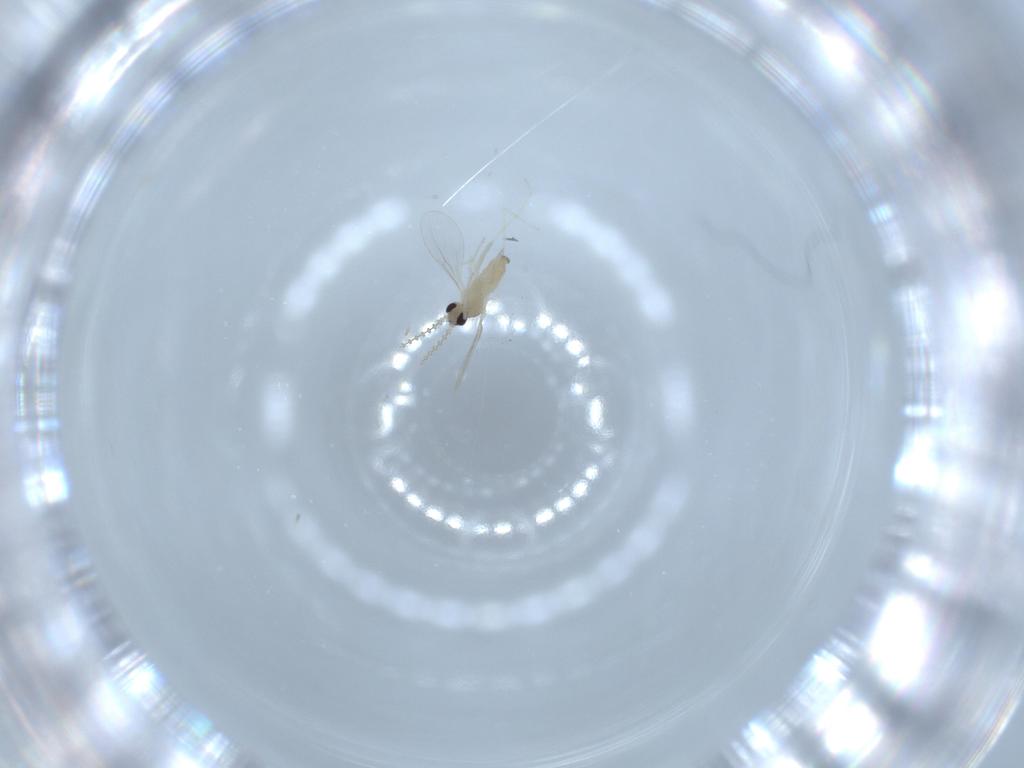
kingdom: Animalia
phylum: Arthropoda
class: Insecta
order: Diptera
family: Cecidomyiidae
